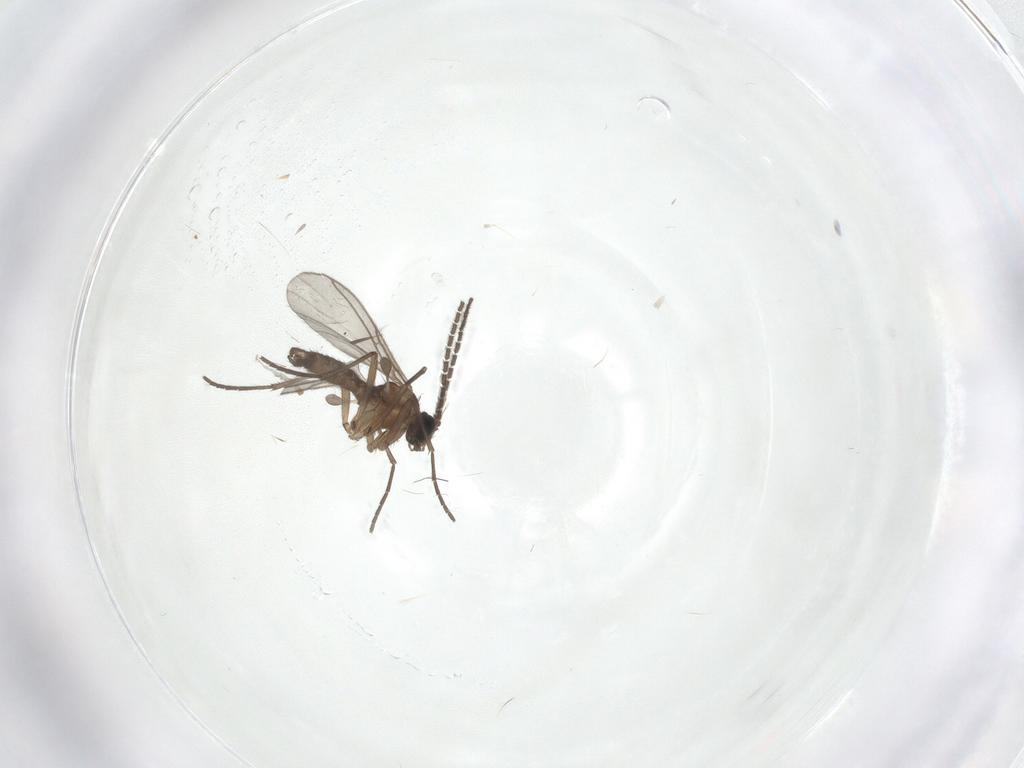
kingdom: Animalia
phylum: Arthropoda
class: Insecta
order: Diptera
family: Sciaridae
